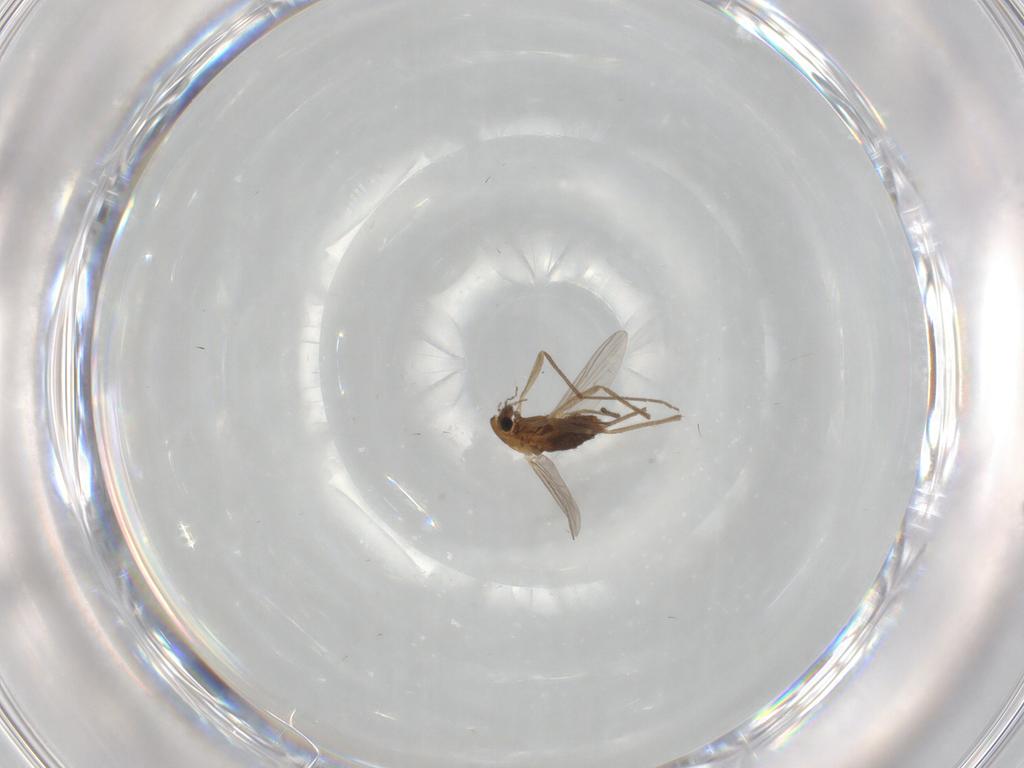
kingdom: Animalia
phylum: Arthropoda
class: Insecta
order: Diptera
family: Chironomidae
